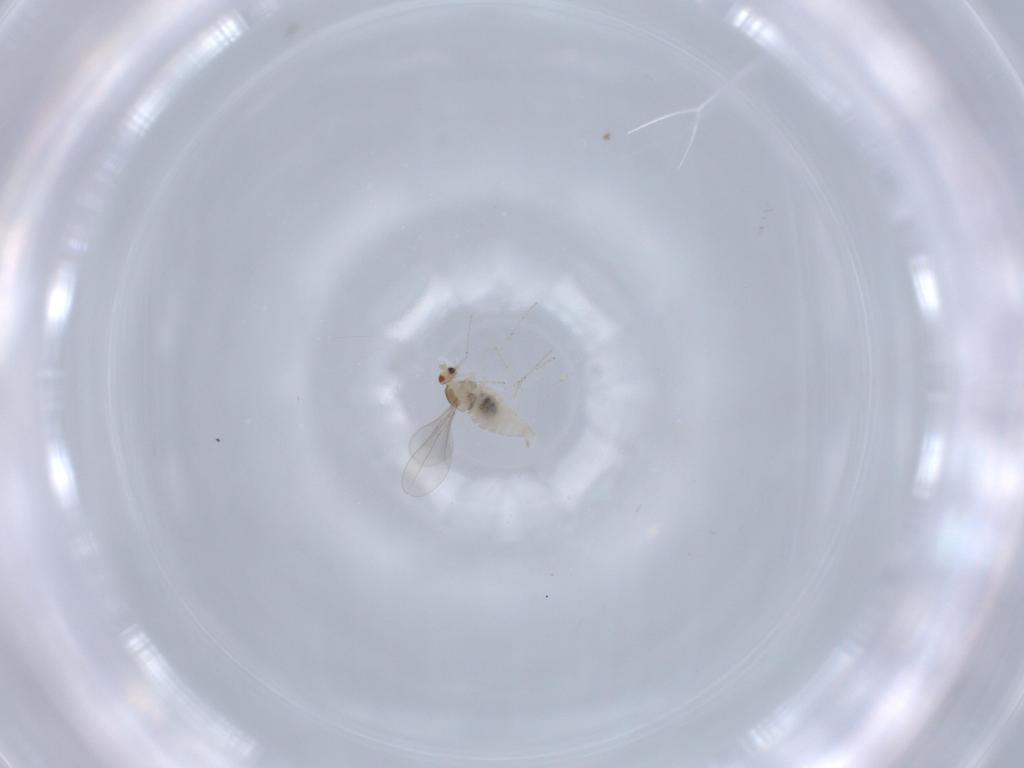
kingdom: Animalia
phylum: Arthropoda
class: Insecta
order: Diptera
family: Cecidomyiidae
